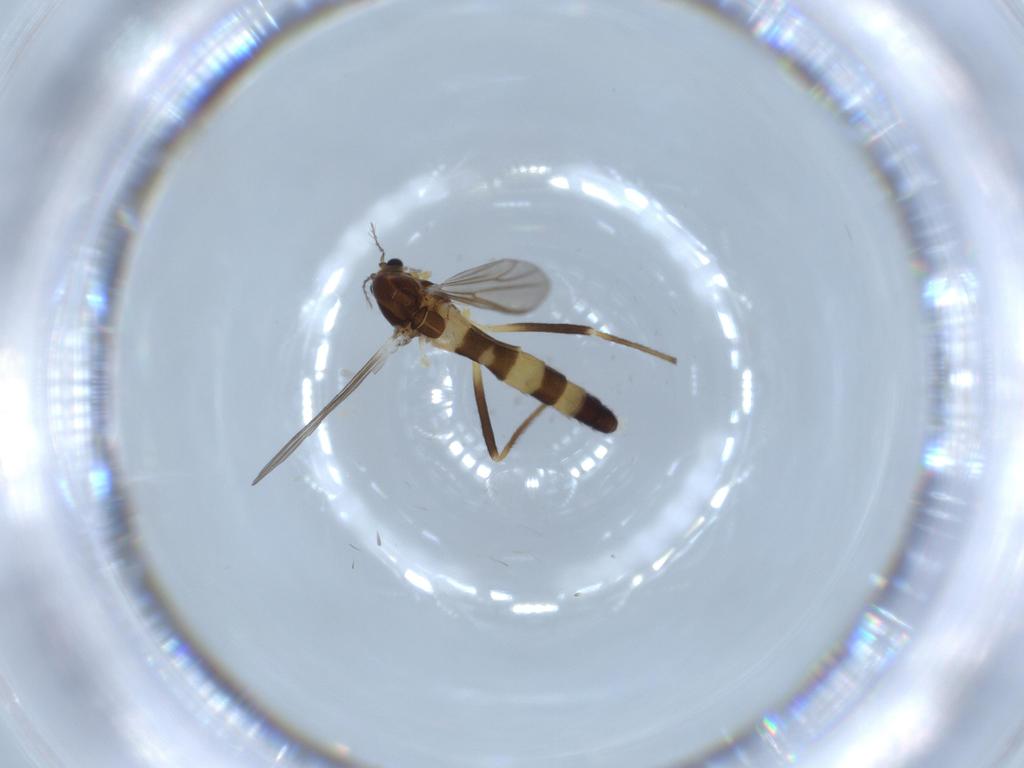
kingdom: Animalia
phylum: Arthropoda
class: Insecta
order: Diptera
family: Chironomidae
